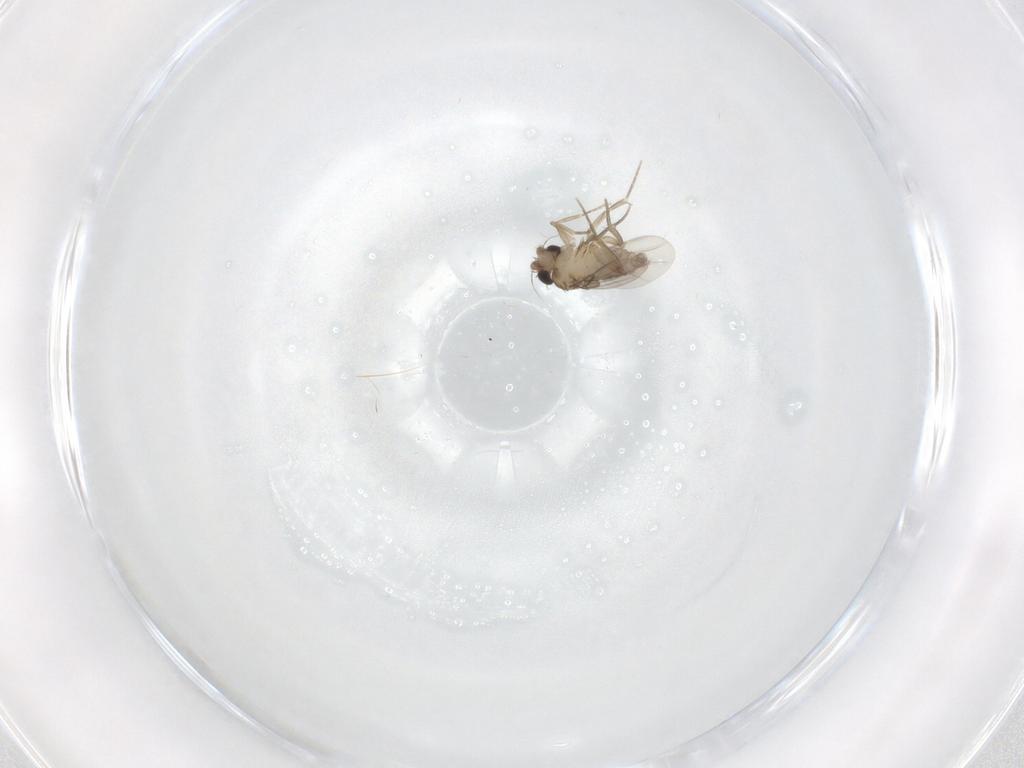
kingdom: Animalia
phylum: Arthropoda
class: Insecta
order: Diptera
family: Phoridae
